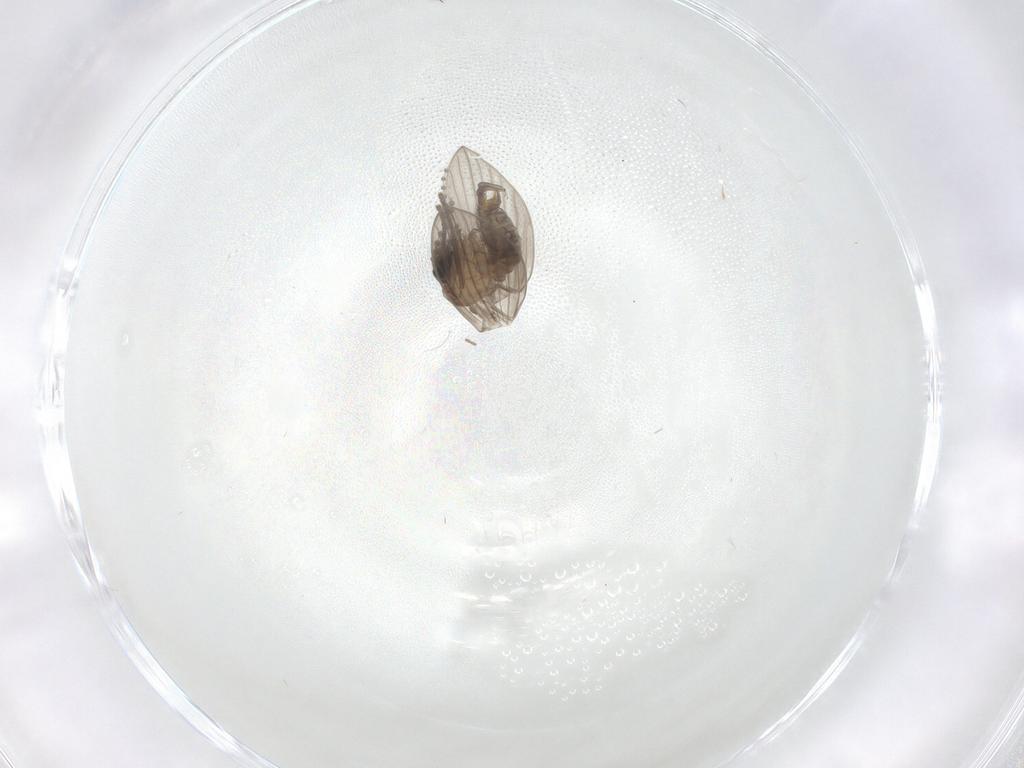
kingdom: Animalia
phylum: Arthropoda
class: Insecta
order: Diptera
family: Psychodidae
